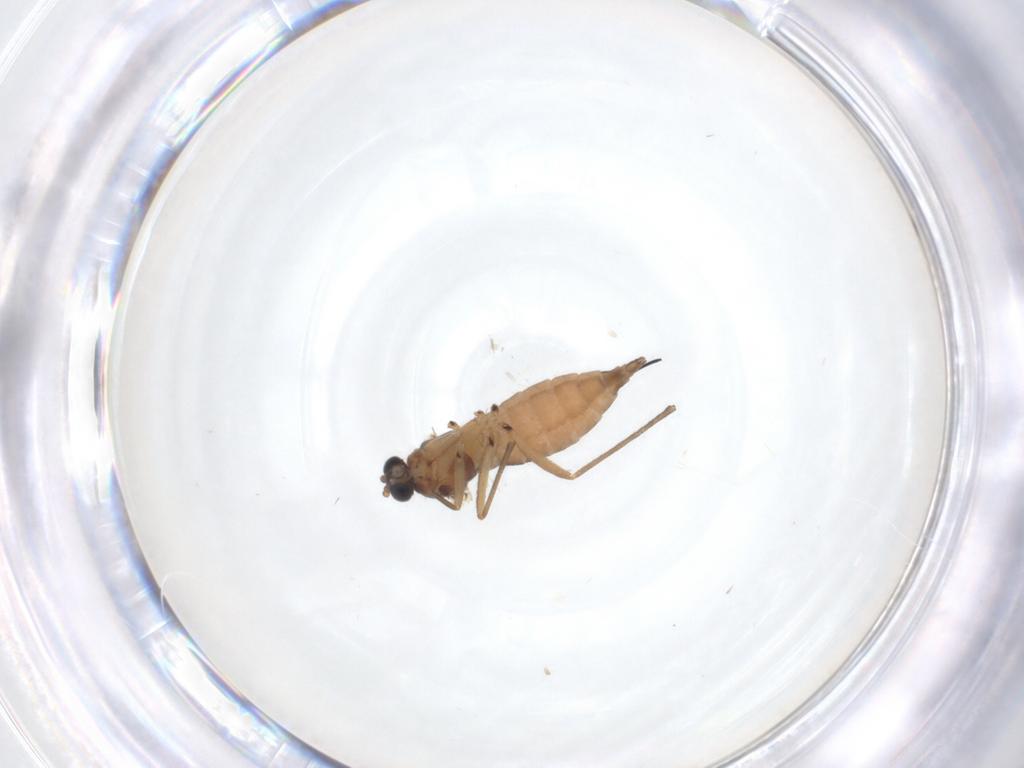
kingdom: Animalia
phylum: Arthropoda
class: Insecta
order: Diptera
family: Sciaridae
